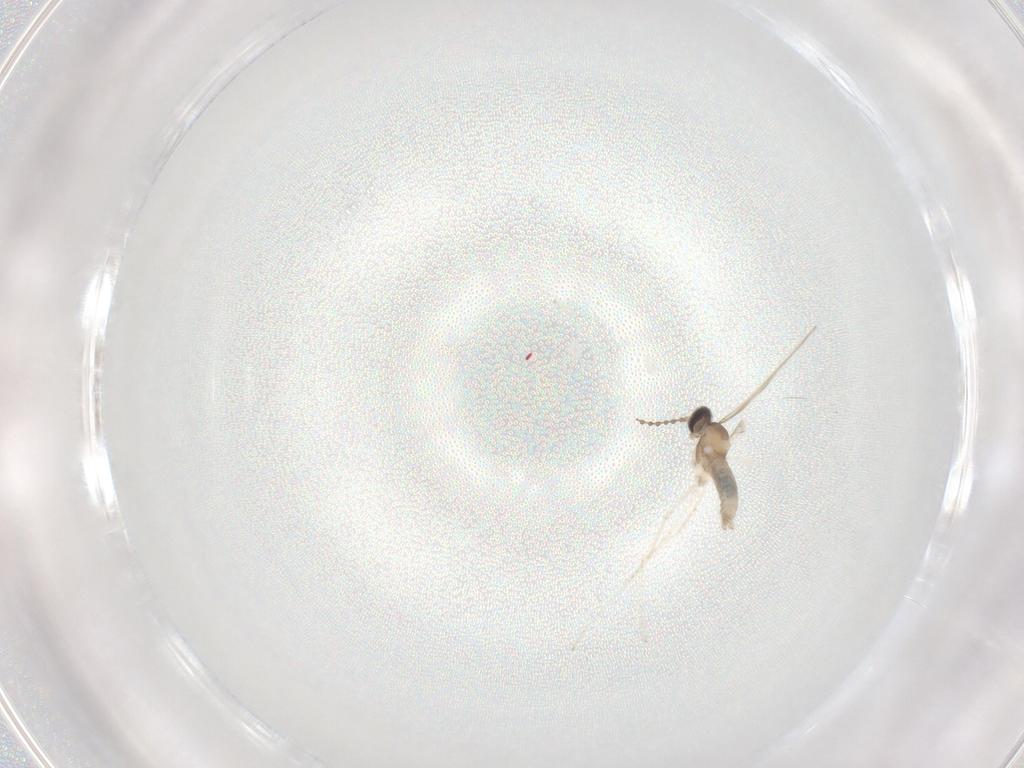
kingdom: Animalia
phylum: Arthropoda
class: Insecta
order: Diptera
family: Cecidomyiidae
